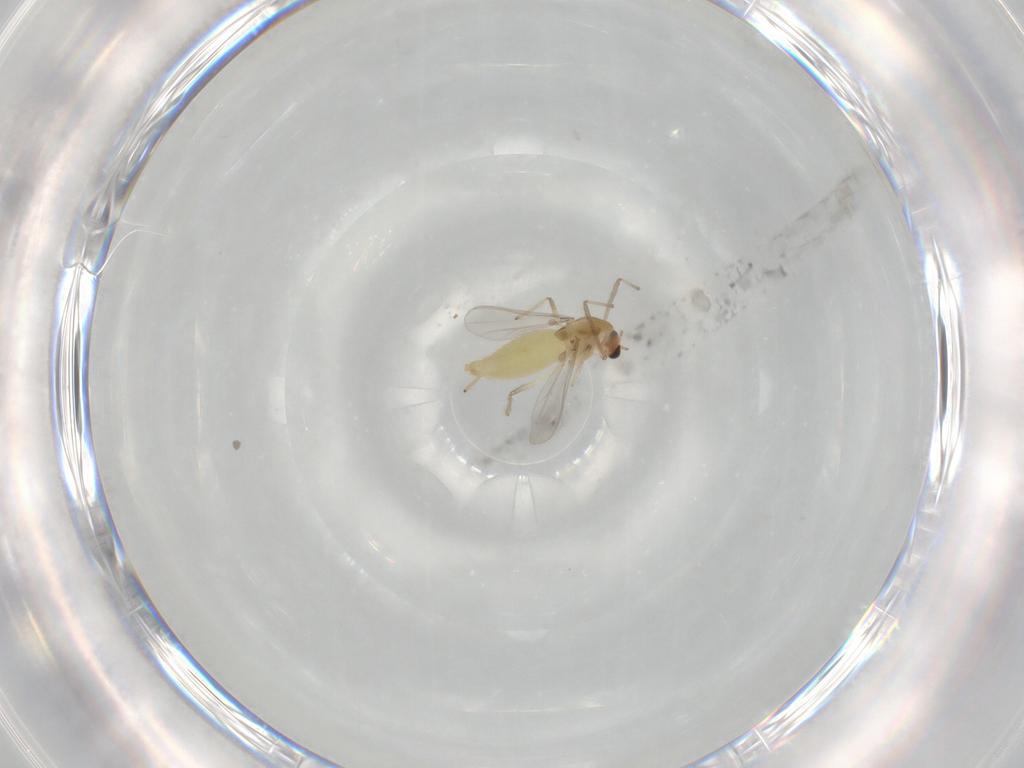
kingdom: Animalia
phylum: Arthropoda
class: Insecta
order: Diptera
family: Chironomidae
